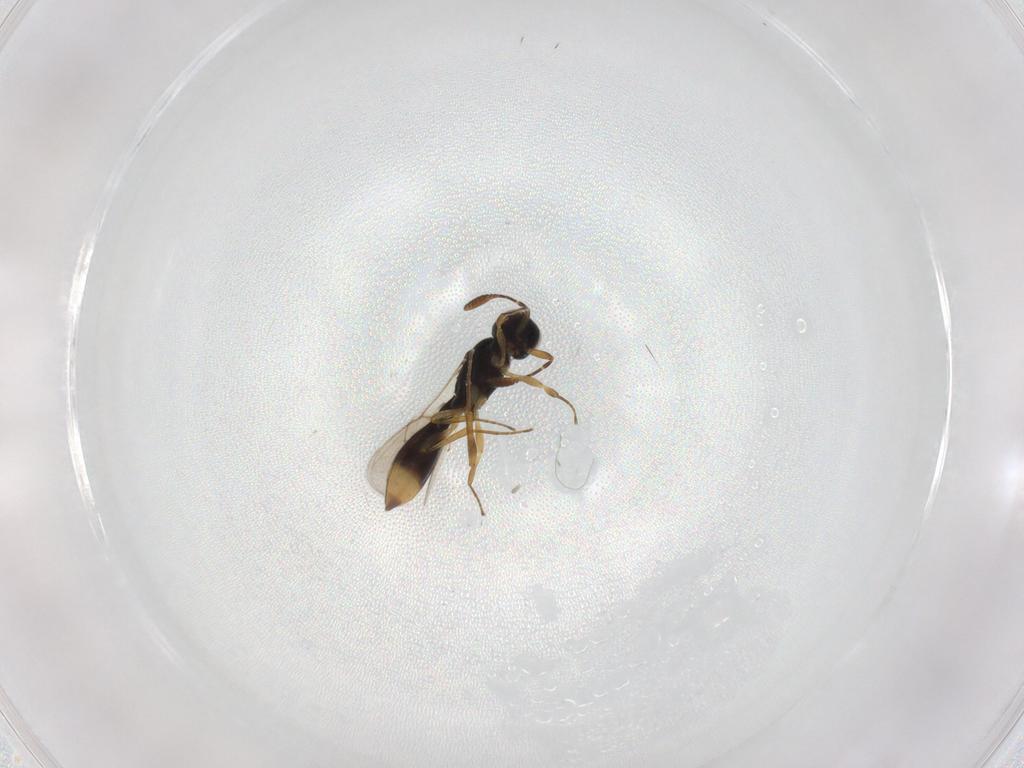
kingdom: Animalia
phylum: Arthropoda
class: Insecta
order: Hymenoptera
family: Scelionidae
